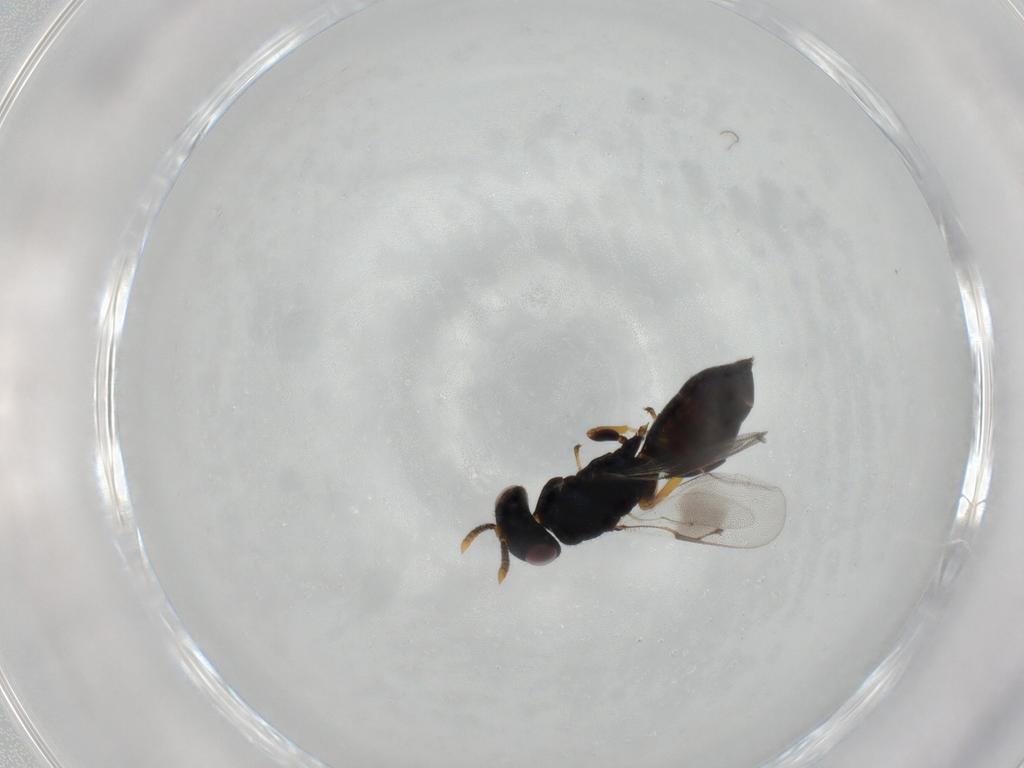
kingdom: Animalia
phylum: Arthropoda
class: Insecta
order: Hymenoptera
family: Pteromalidae
